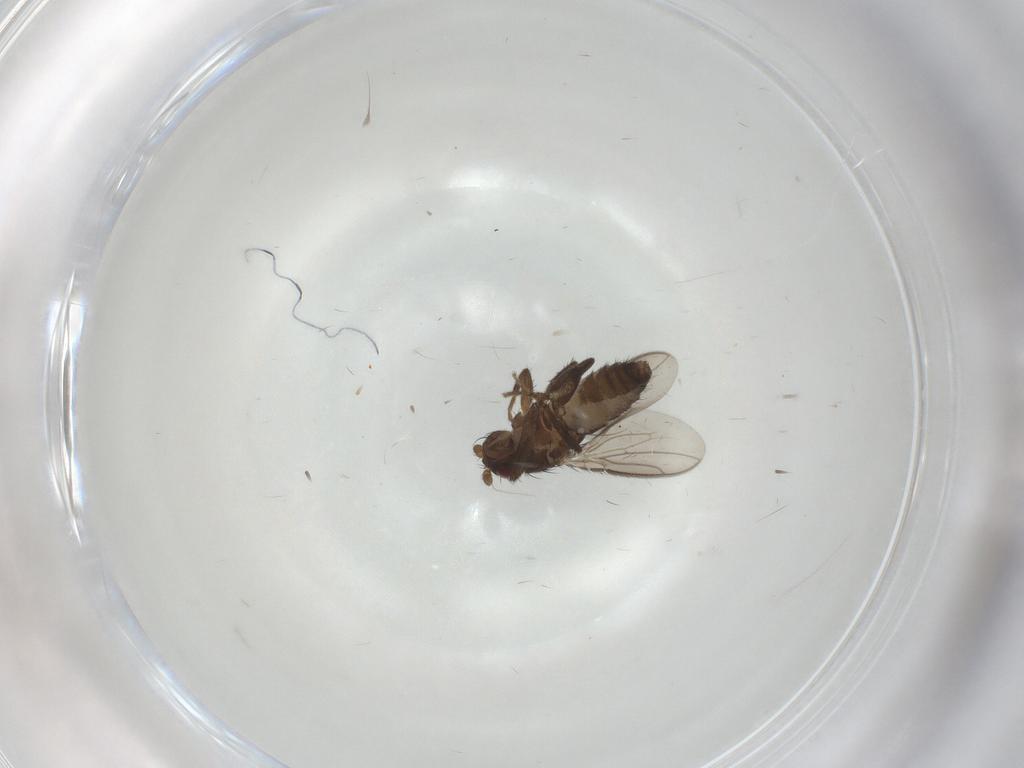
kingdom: Animalia
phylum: Arthropoda
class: Insecta
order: Diptera
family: Sphaeroceridae
